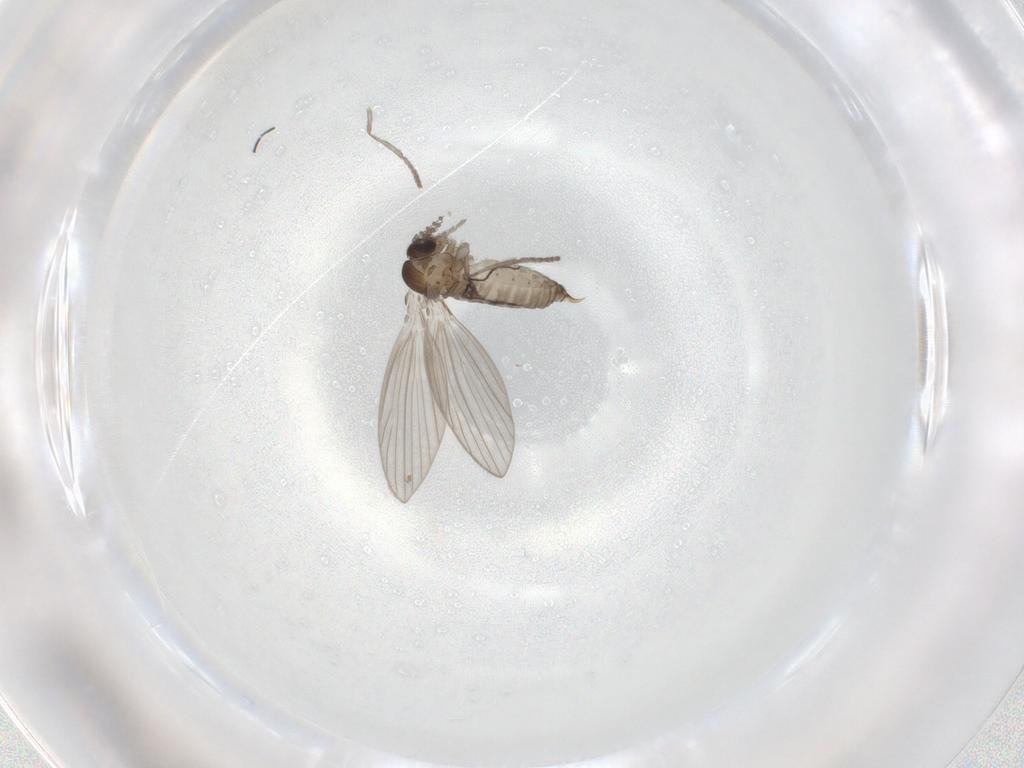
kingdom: Animalia
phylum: Arthropoda
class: Insecta
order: Diptera
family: Psychodidae
